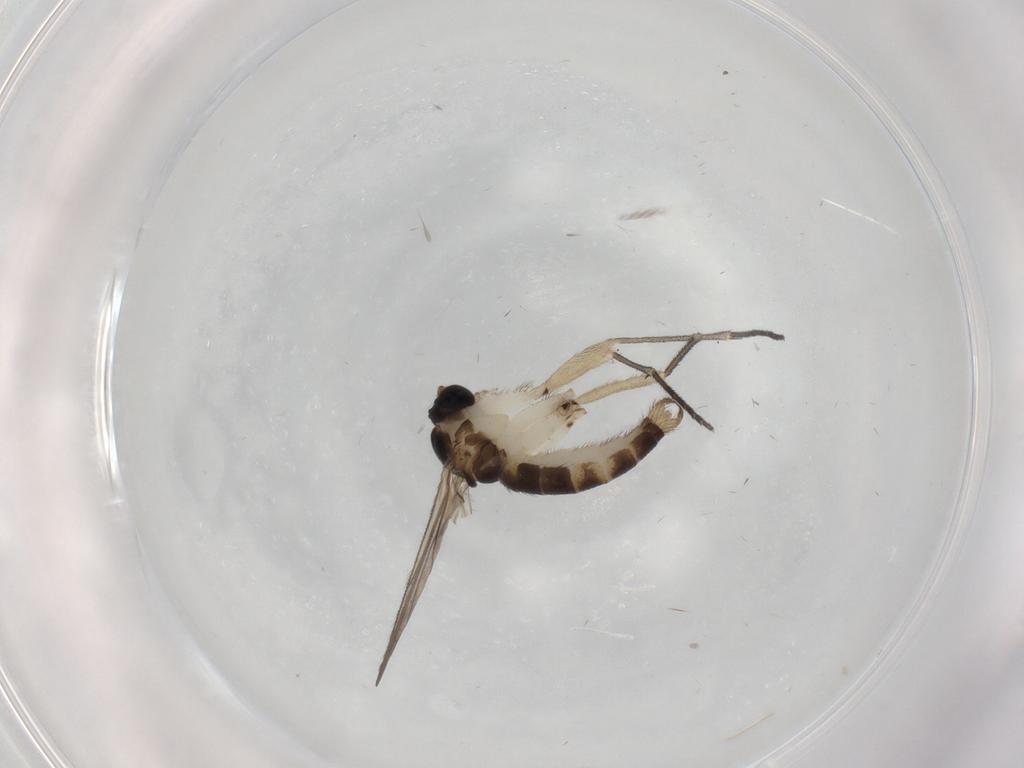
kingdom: Animalia
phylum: Arthropoda
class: Insecta
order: Diptera
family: Sciaridae
